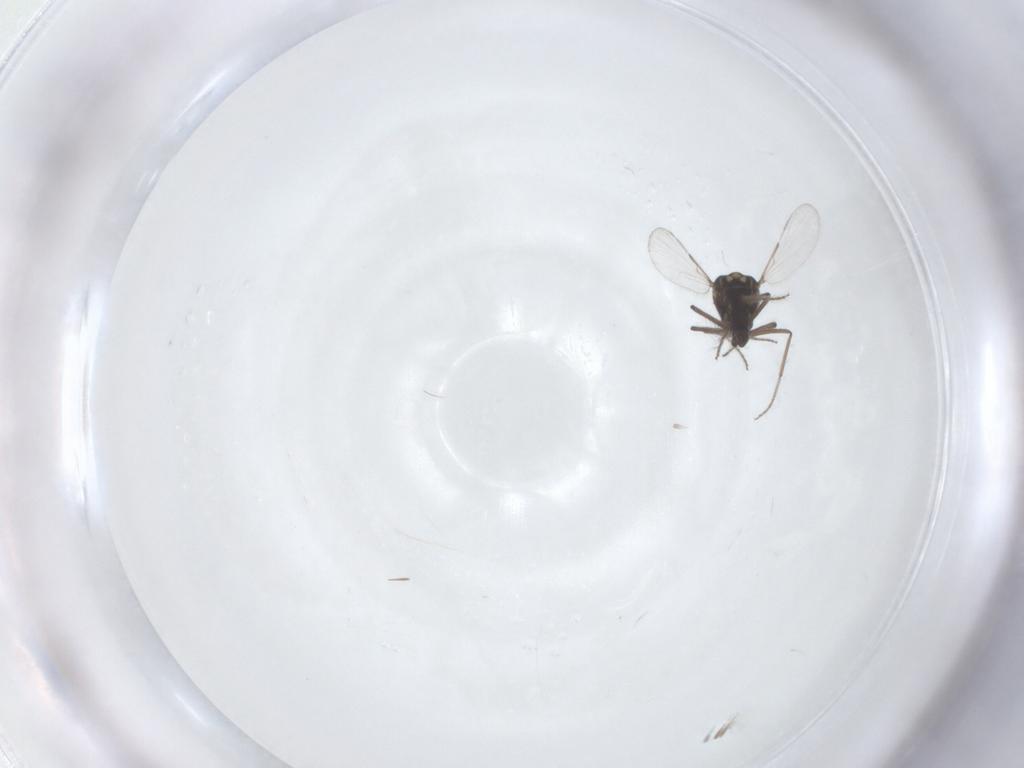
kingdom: Animalia
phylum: Arthropoda
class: Insecta
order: Diptera
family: Ceratopogonidae
